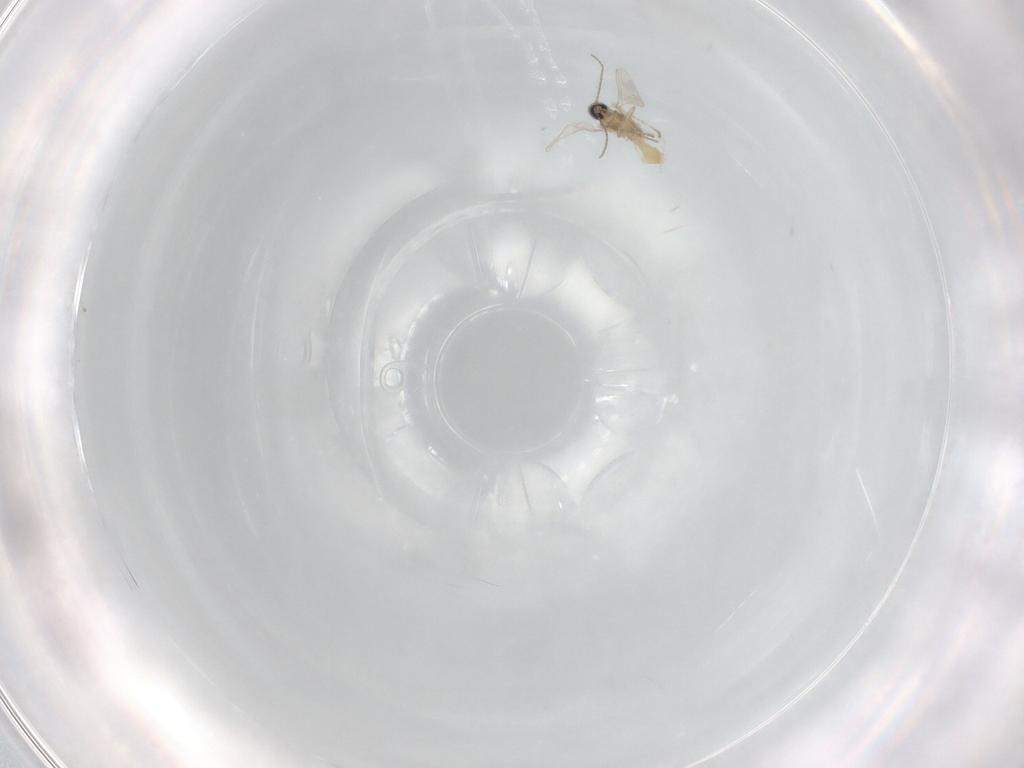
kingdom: Animalia
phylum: Arthropoda
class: Insecta
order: Diptera
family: Cecidomyiidae
